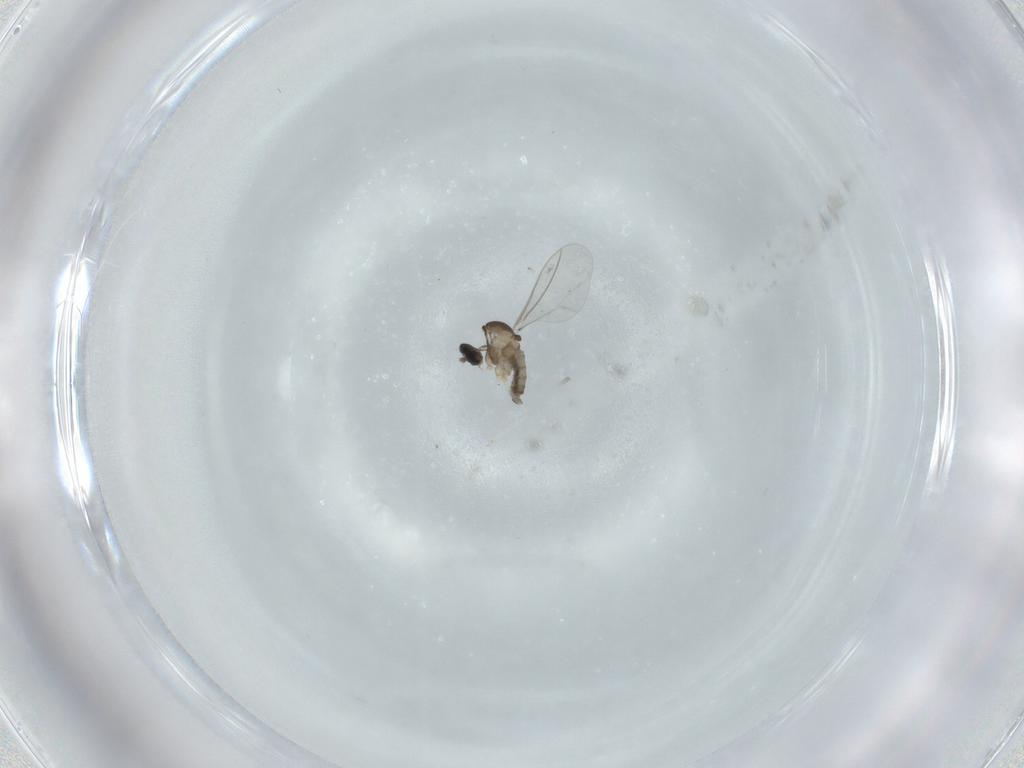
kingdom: Animalia
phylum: Arthropoda
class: Insecta
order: Diptera
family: Cecidomyiidae
